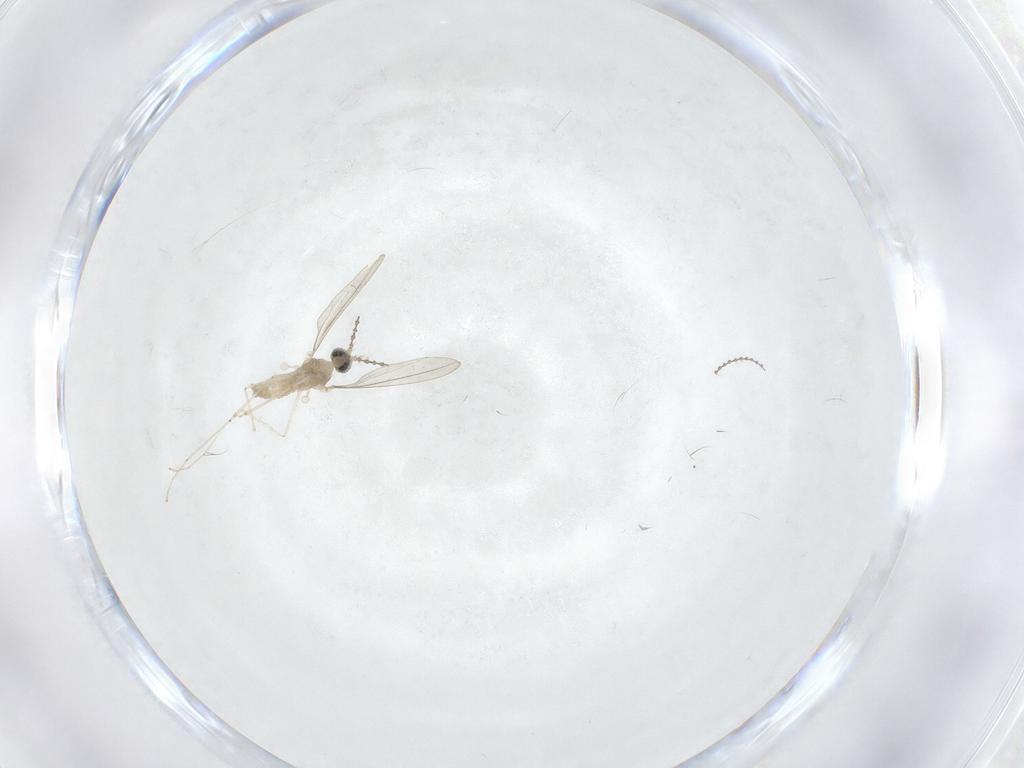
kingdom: Animalia
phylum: Arthropoda
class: Insecta
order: Diptera
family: Cecidomyiidae
